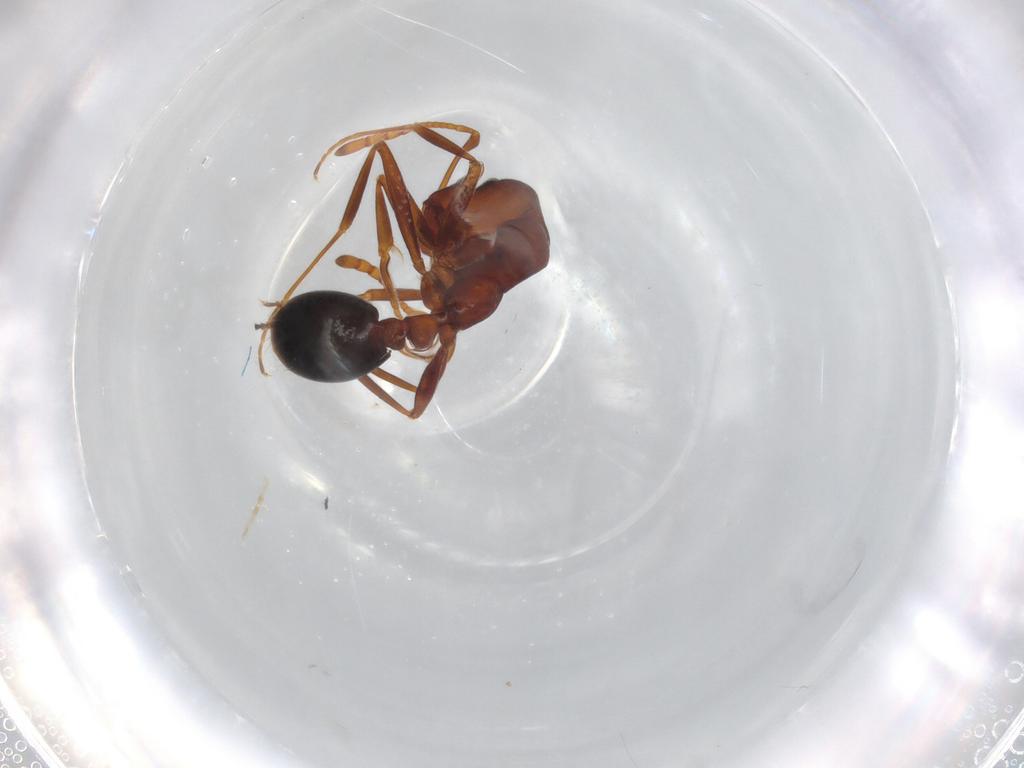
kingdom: Animalia
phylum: Arthropoda
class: Insecta
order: Hymenoptera
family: Formicidae
